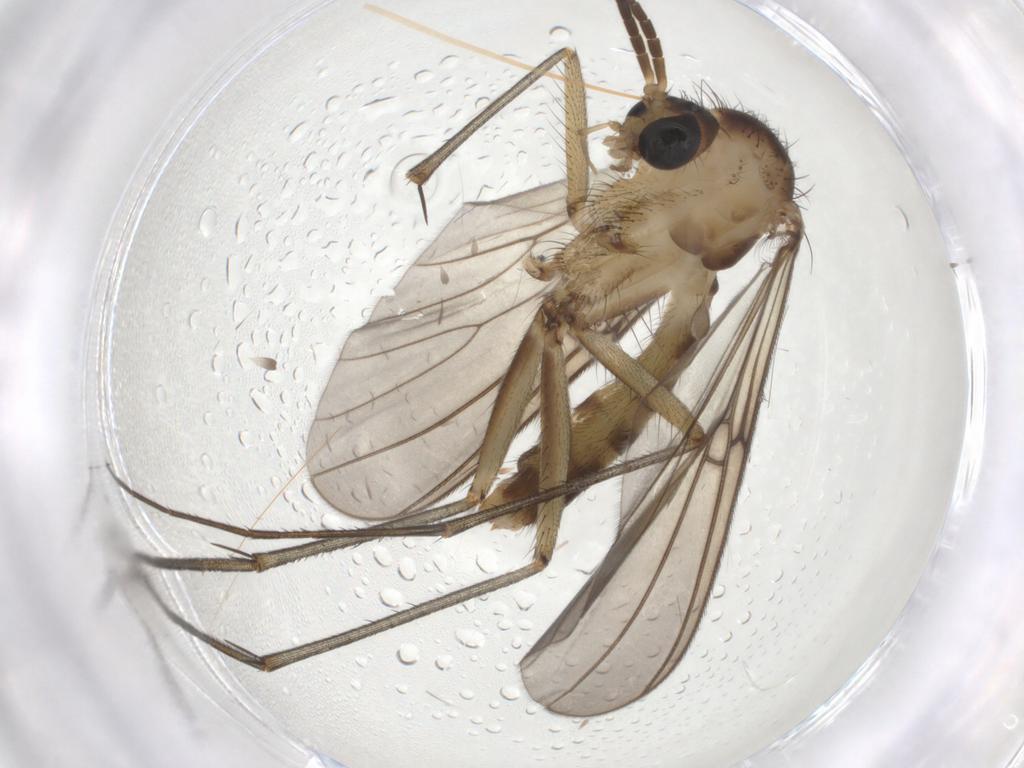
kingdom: Animalia
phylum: Arthropoda
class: Insecta
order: Diptera
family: Mycetophilidae
